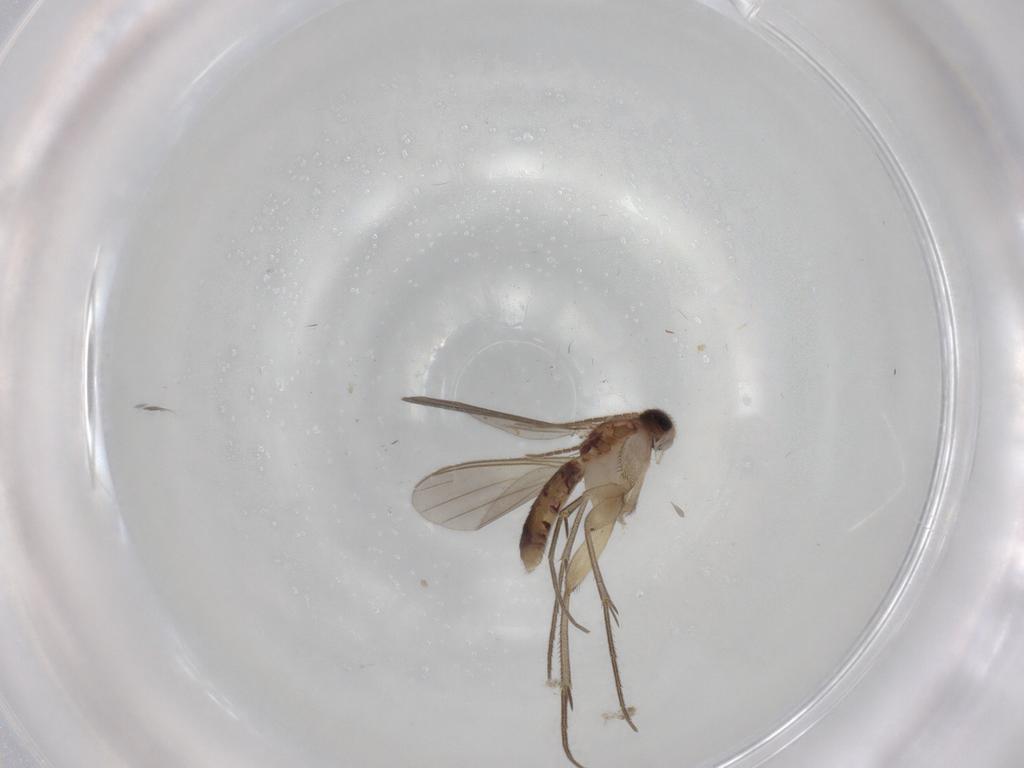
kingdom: Animalia
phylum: Arthropoda
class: Insecta
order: Diptera
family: Mycetophilidae
